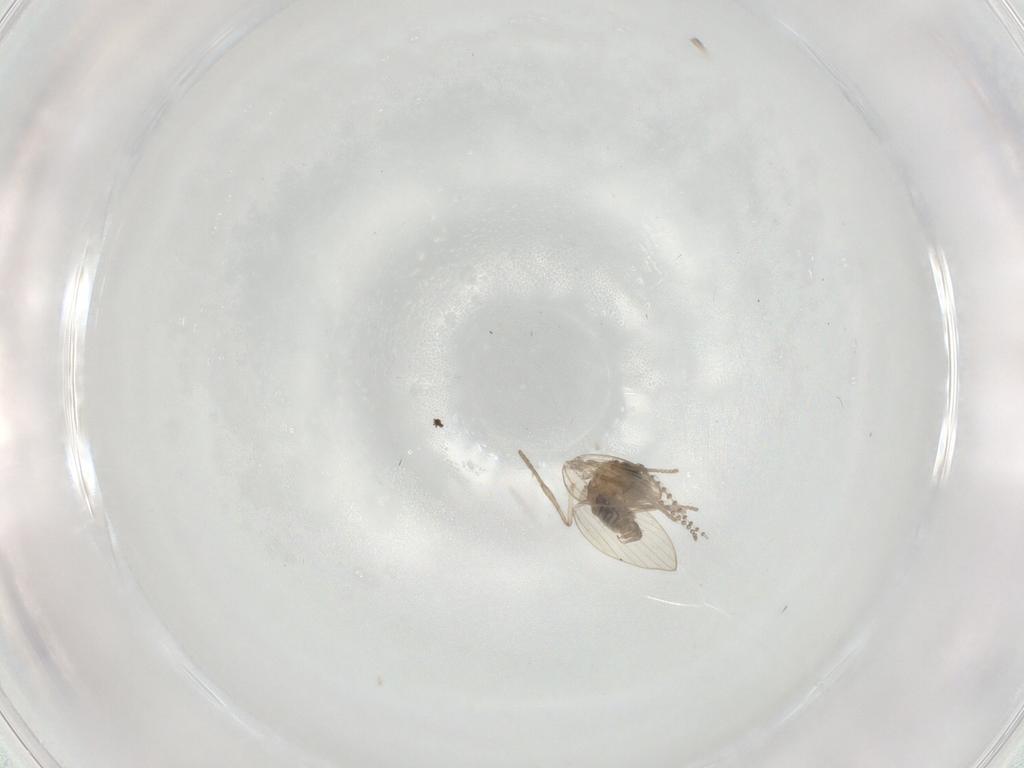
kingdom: Animalia
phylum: Arthropoda
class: Insecta
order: Diptera
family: Psychodidae
